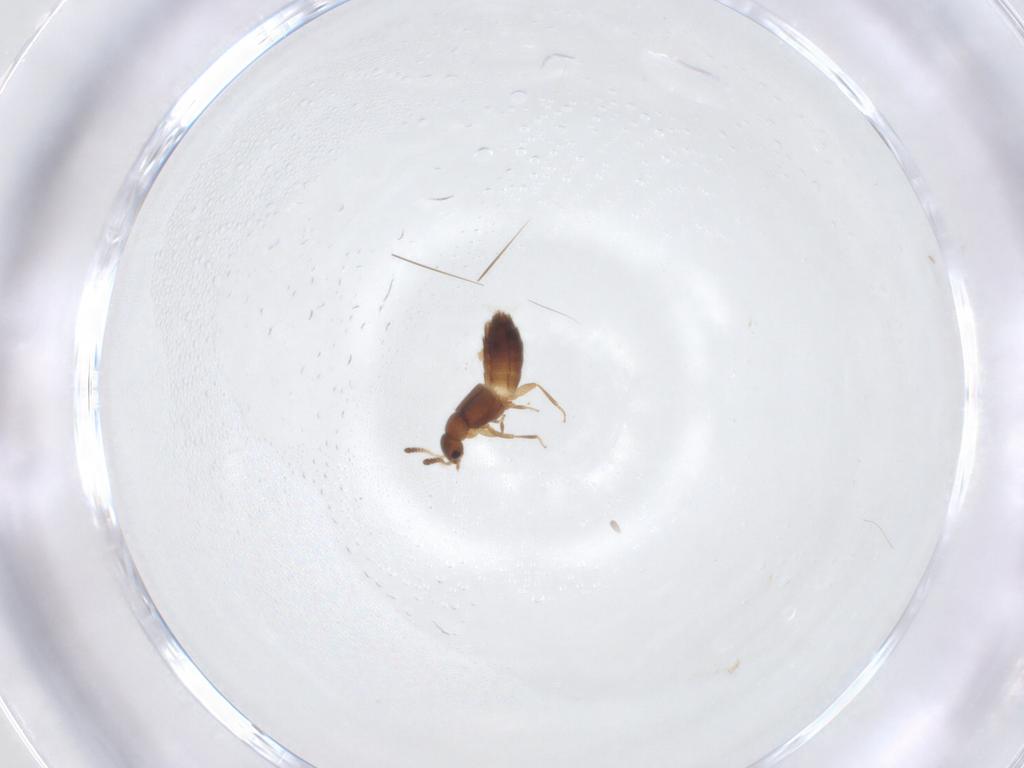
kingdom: Animalia
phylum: Arthropoda
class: Insecta
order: Coleoptera
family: Staphylinidae
